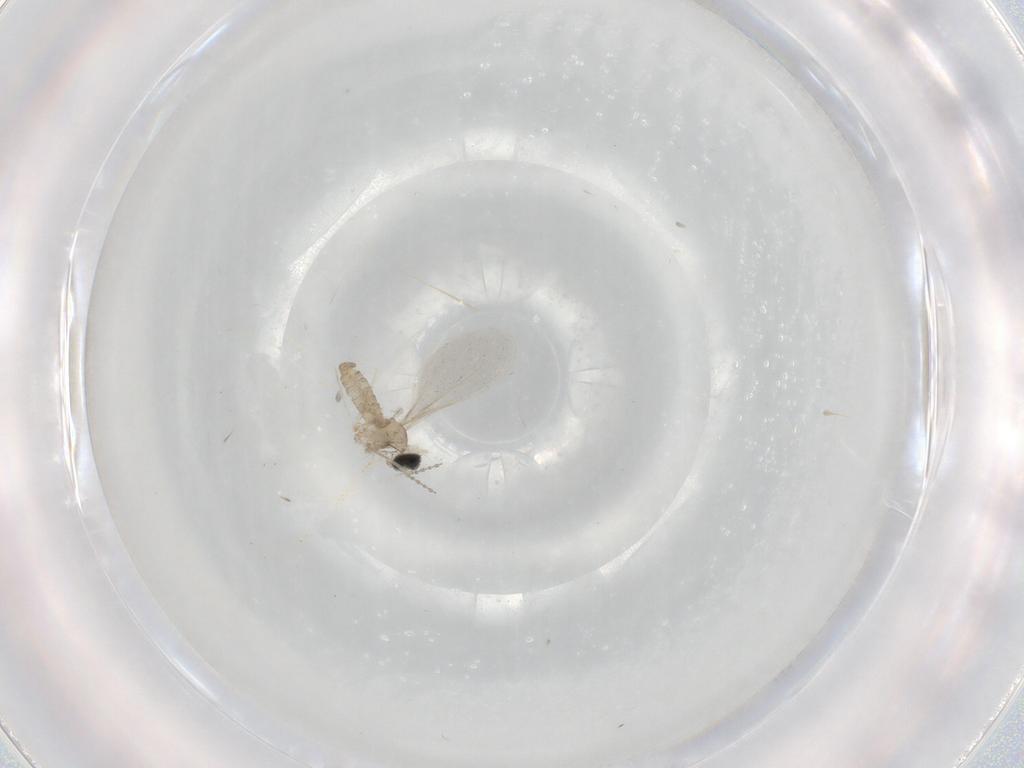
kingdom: Animalia
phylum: Arthropoda
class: Insecta
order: Diptera
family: Cecidomyiidae
